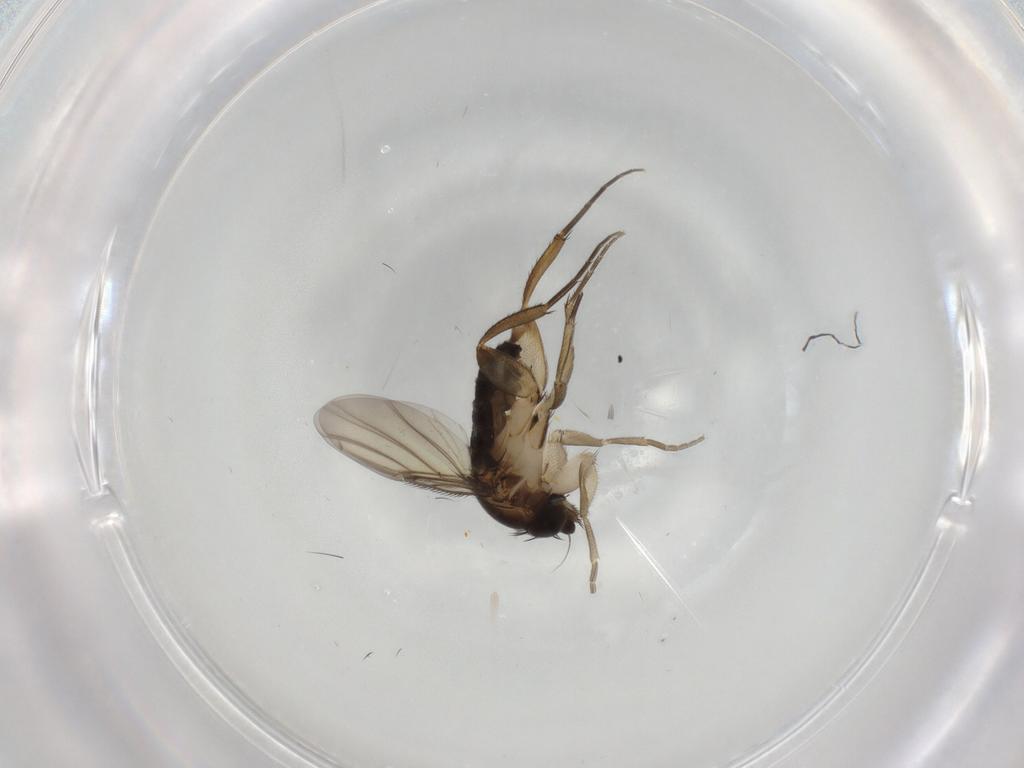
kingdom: Animalia
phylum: Arthropoda
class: Insecta
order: Diptera
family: Phoridae
